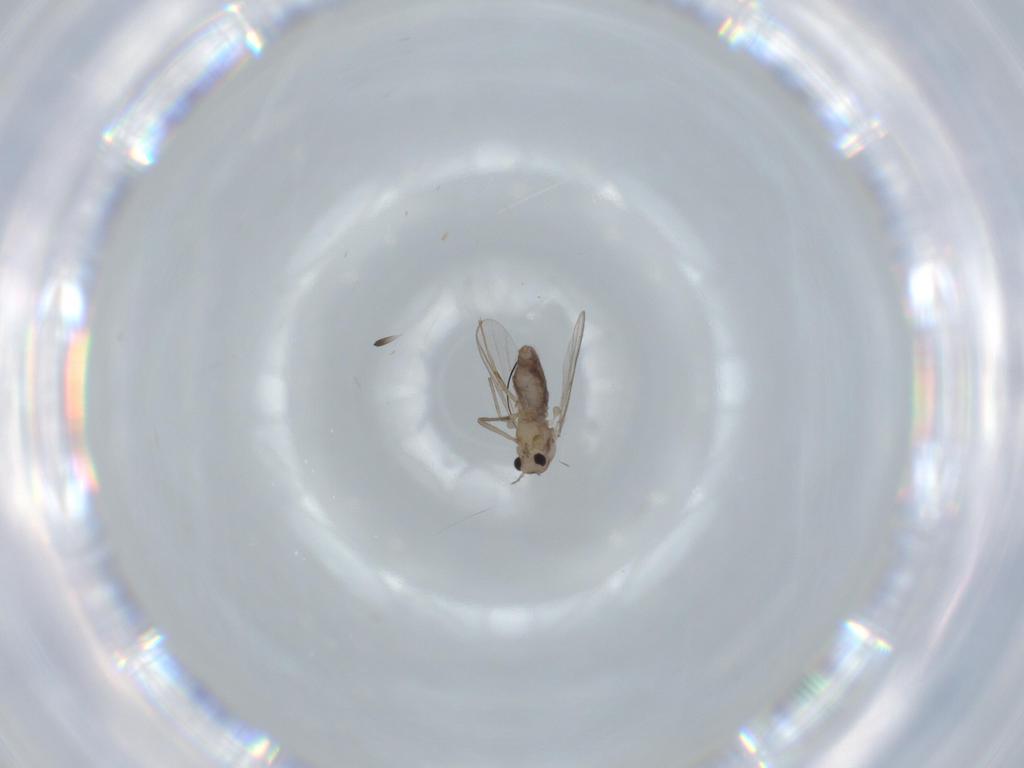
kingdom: Animalia
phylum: Arthropoda
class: Insecta
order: Diptera
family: Chironomidae
